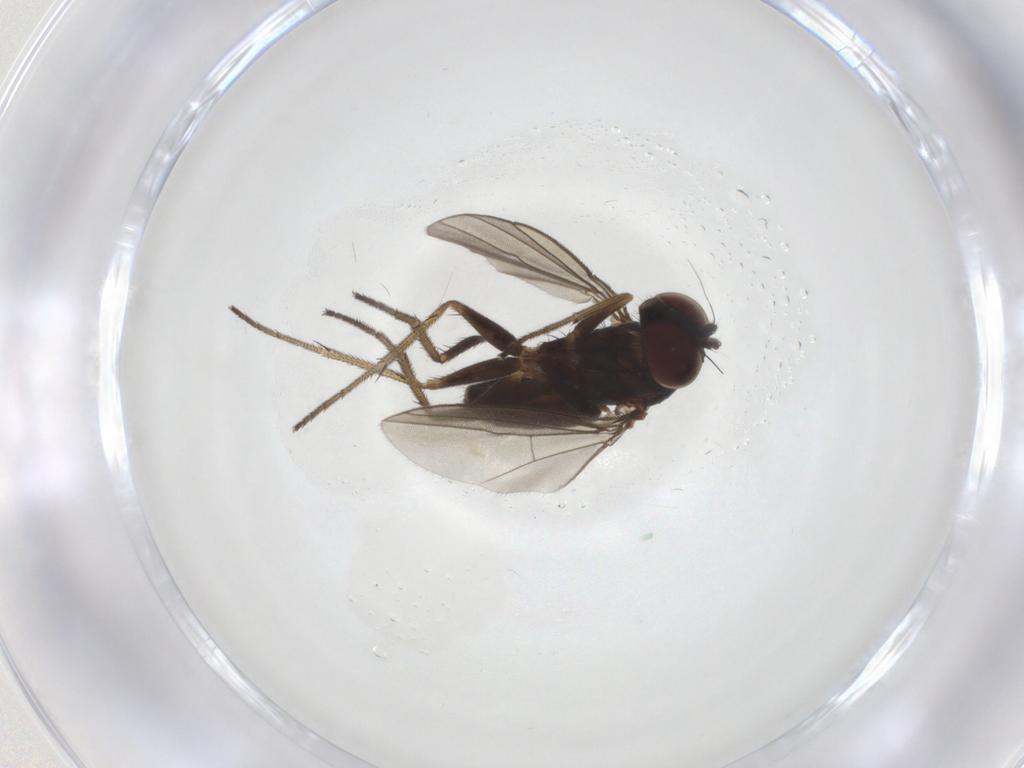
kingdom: Animalia
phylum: Arthropoda
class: Insecta
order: Diptera
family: Dolichopodidae
